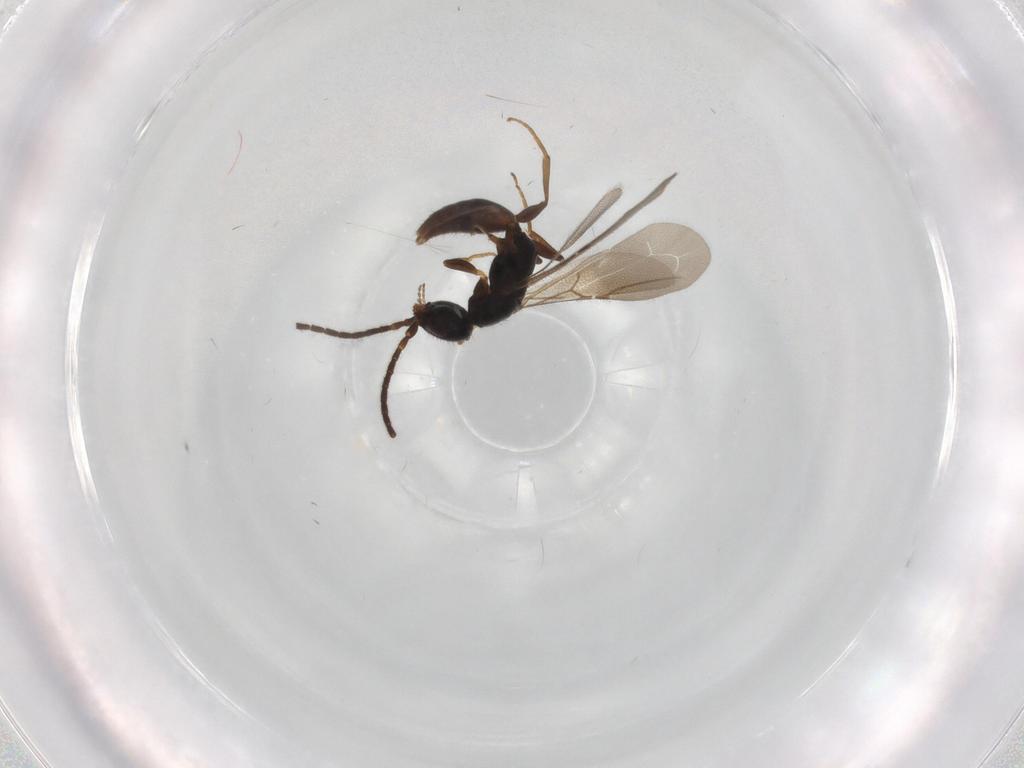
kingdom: Animalia
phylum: Arthropoda
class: Insecta
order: Hymenoptera
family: Bethylidae
